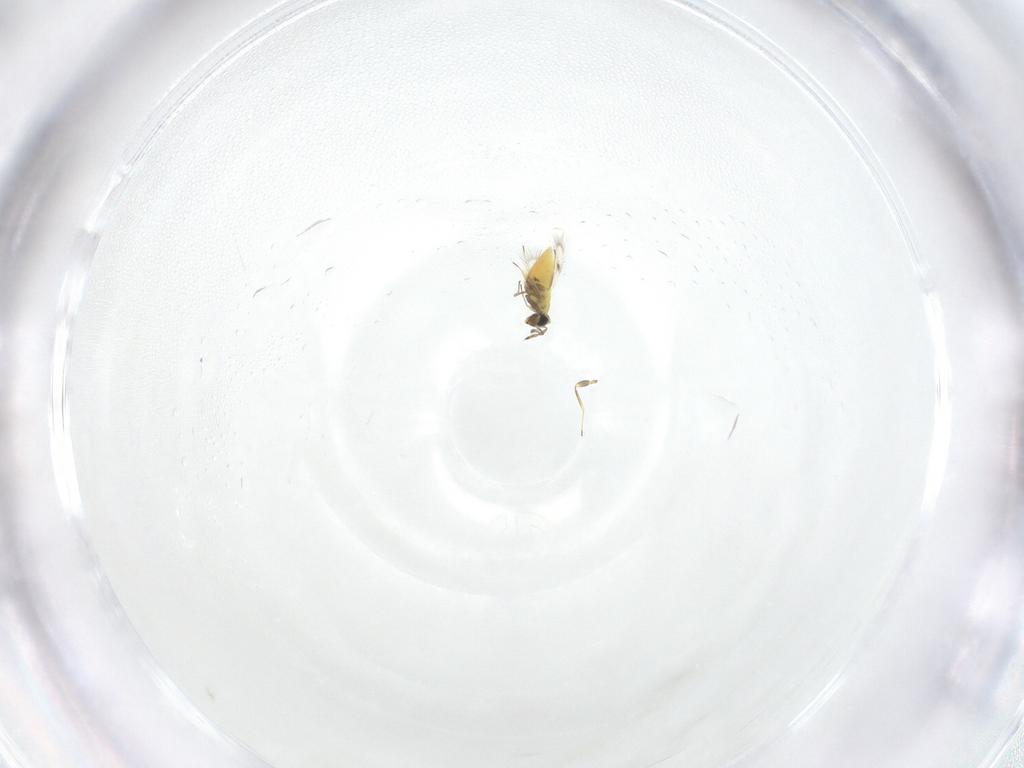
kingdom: Animalia
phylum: Arthropoda
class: Insecta
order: Hymenoptera
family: Trichogrammatidae
